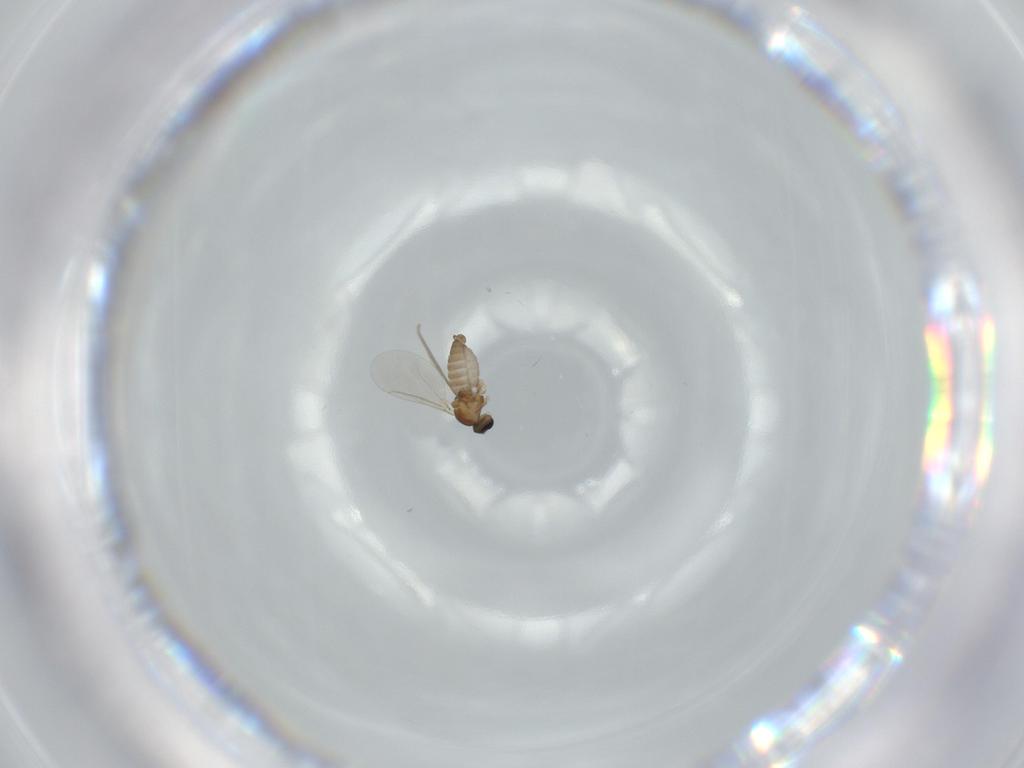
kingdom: Animalia
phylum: Arthropoda
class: Insecta
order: Diptera
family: Cecidomyiidae
